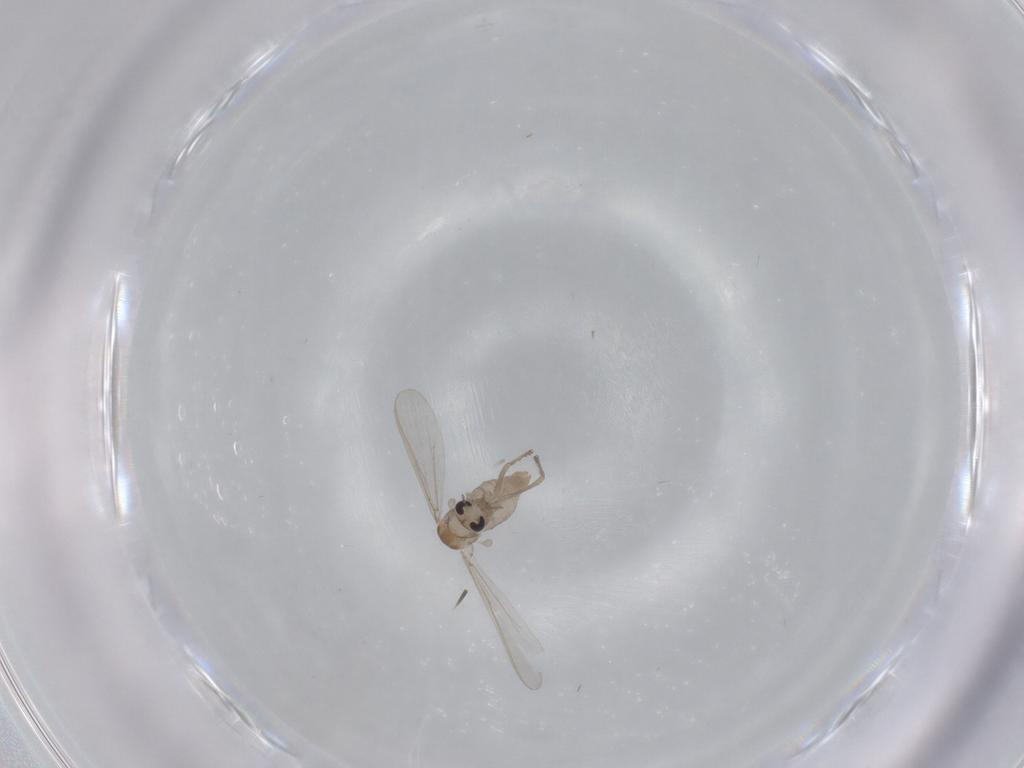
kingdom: Animalia
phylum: Arthropoda
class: Insecta
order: Diptera
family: Chironomidae
